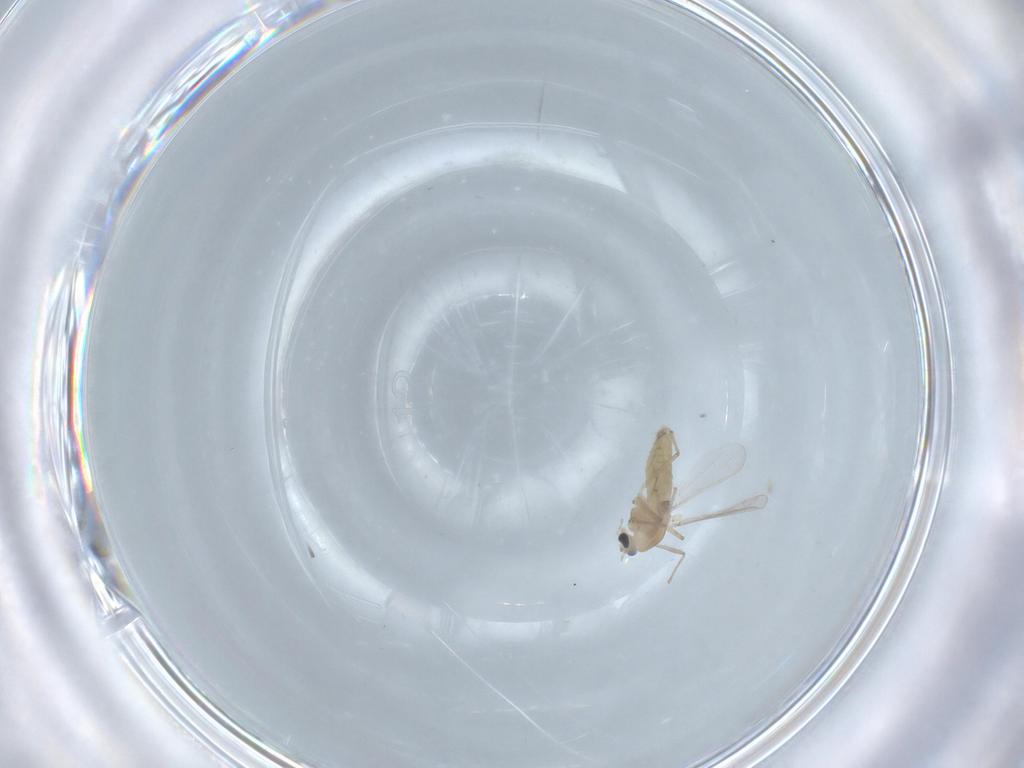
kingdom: Animalia
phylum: Arthropoda
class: Insecta
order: Diptera
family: Chironomidae
